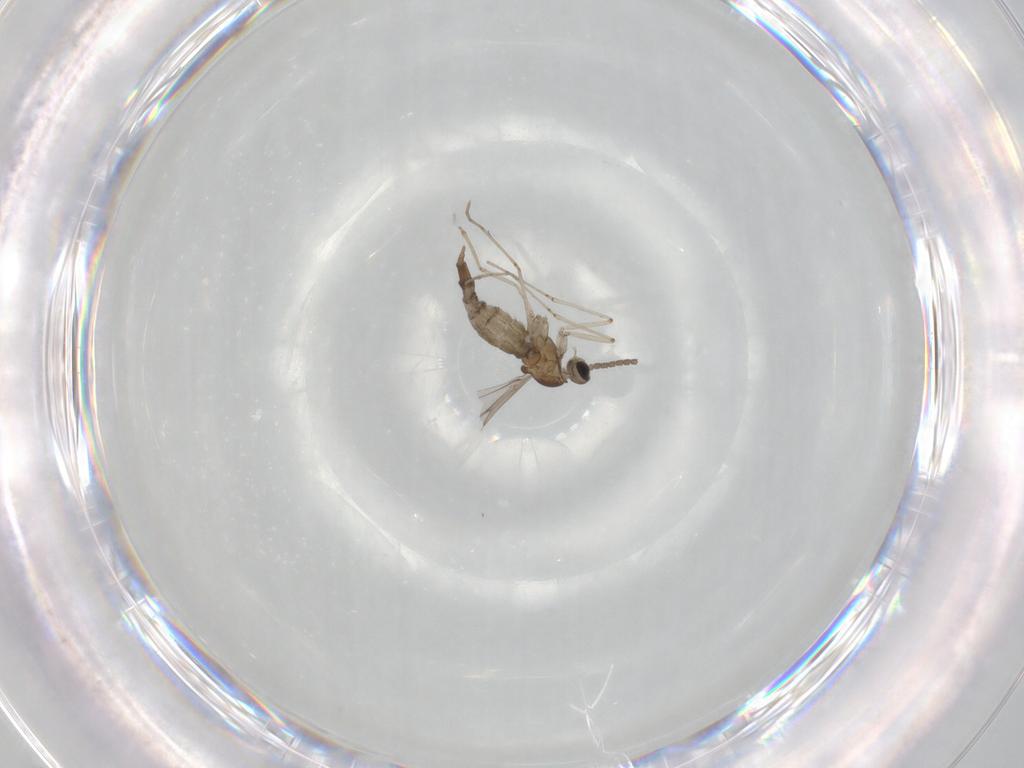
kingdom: Animalia
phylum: Arthropoda
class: Insecta
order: Diptera
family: Cecidomyiidae
